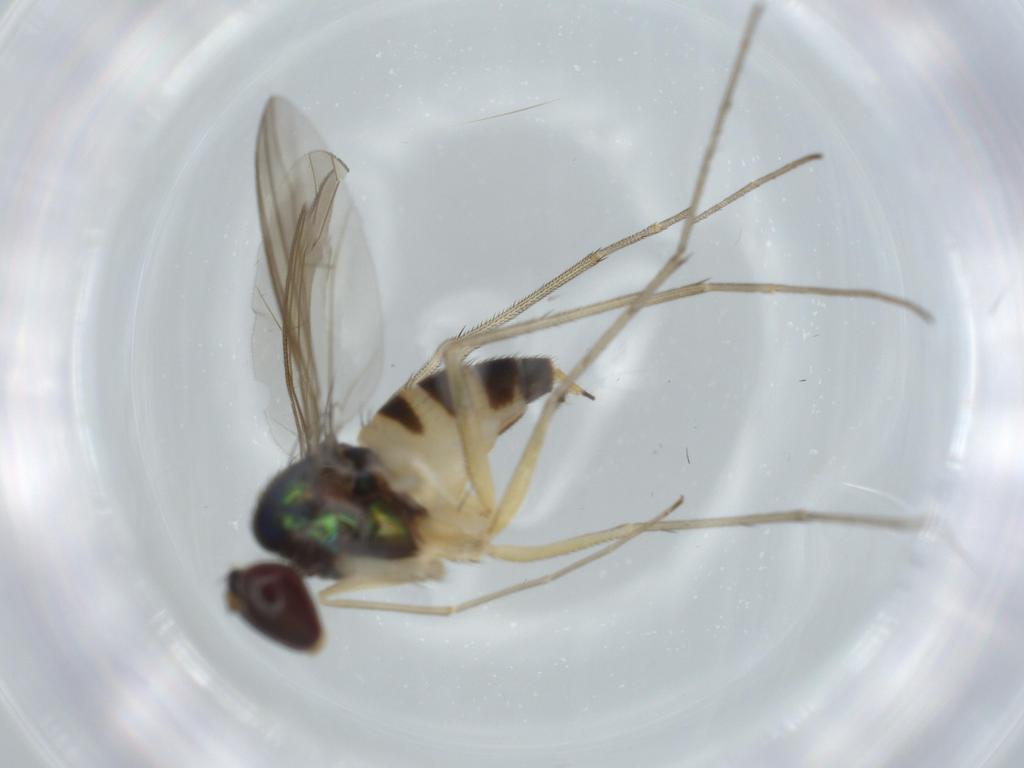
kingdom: Animalia
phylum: Arthropoda
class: Insecta
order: Diptera
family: Dolichopodidae
